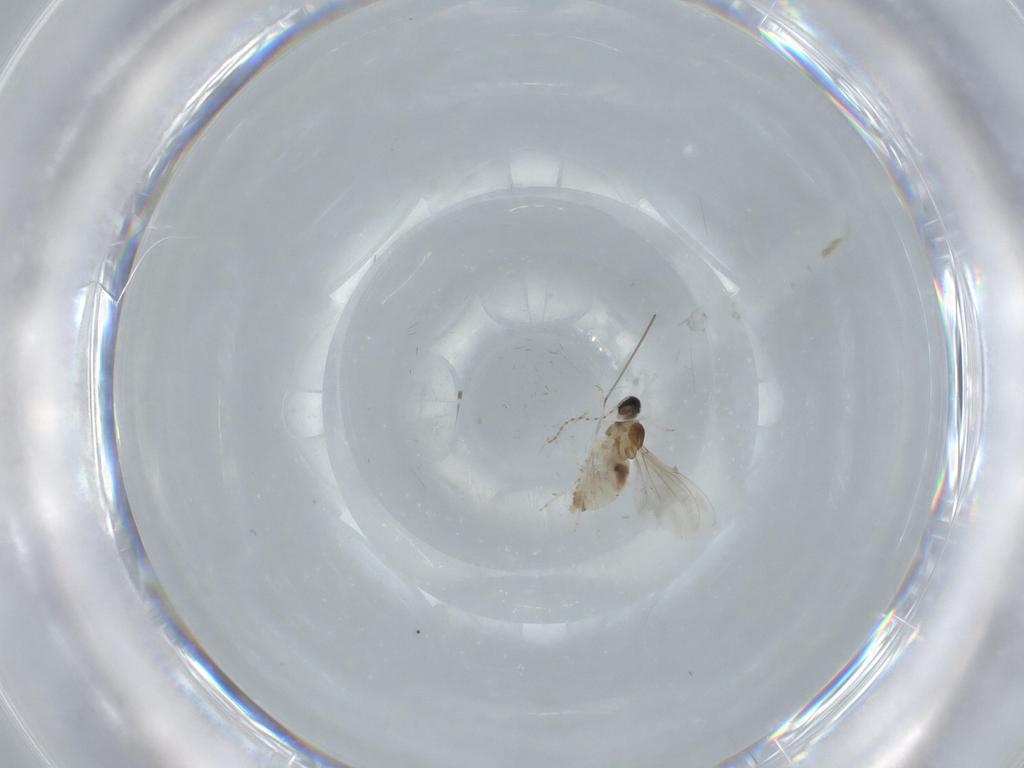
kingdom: Animalia
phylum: Arthropoda
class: Insecta
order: Diptera
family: Cecidomyiidae
